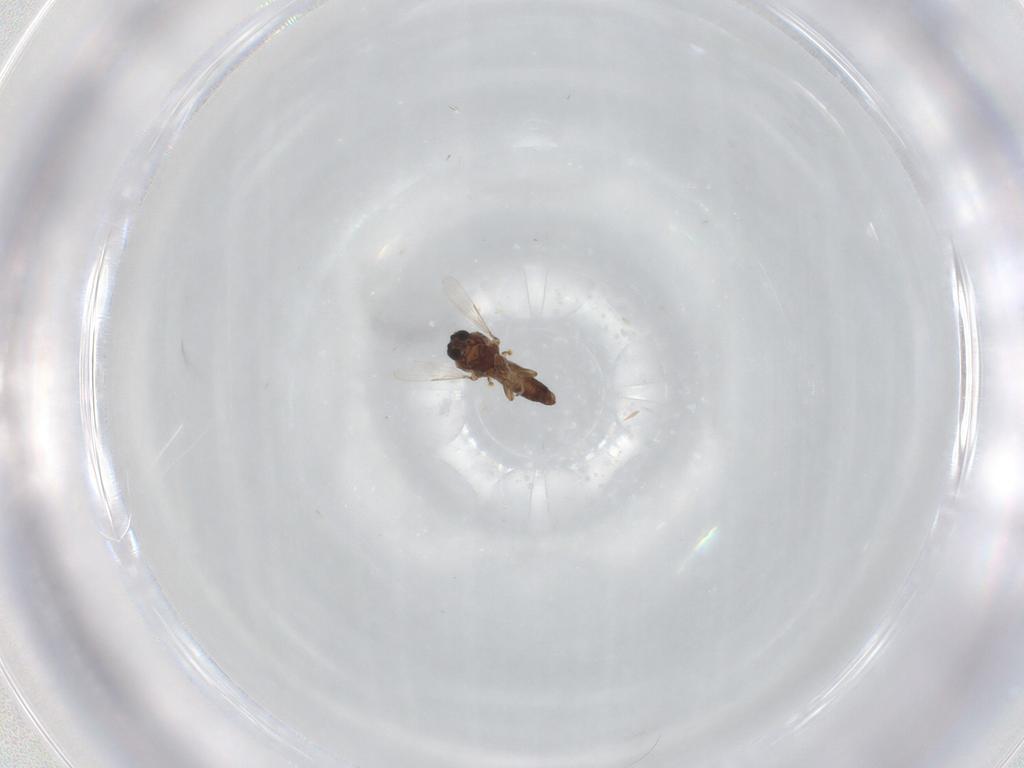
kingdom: Animalia
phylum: Arthropoda
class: Insecta
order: Diptera
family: Ceratopogonidae
